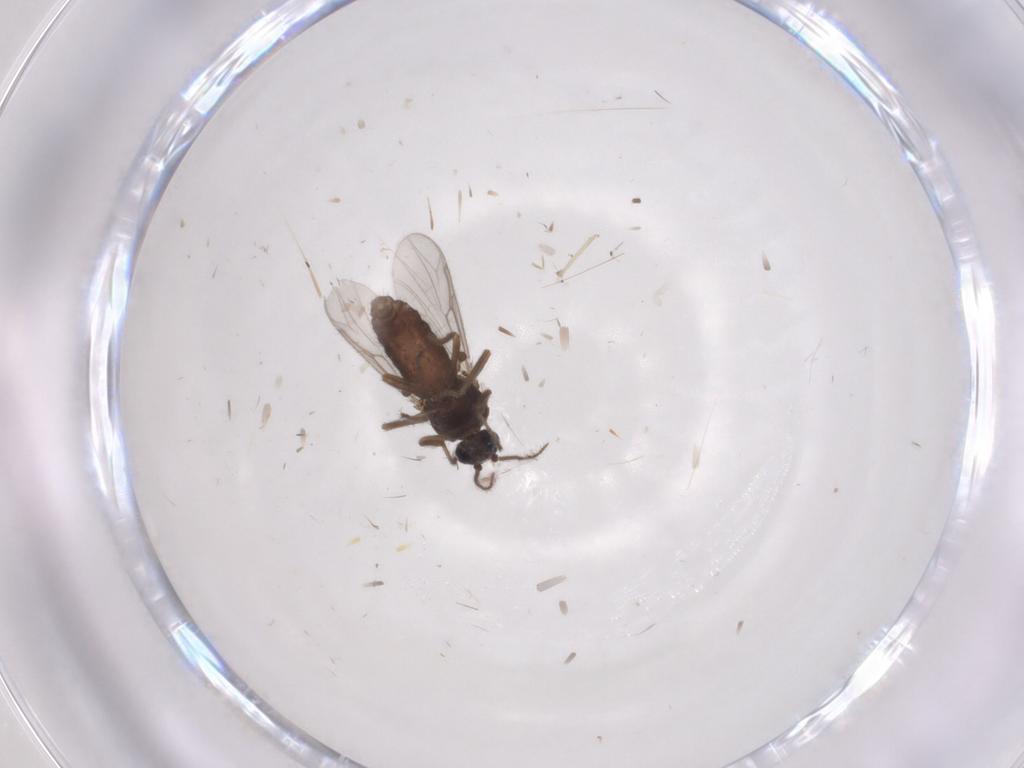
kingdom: Animalia
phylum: Arthropoda
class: Insecta
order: Diptera
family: Ceratopogonidae
